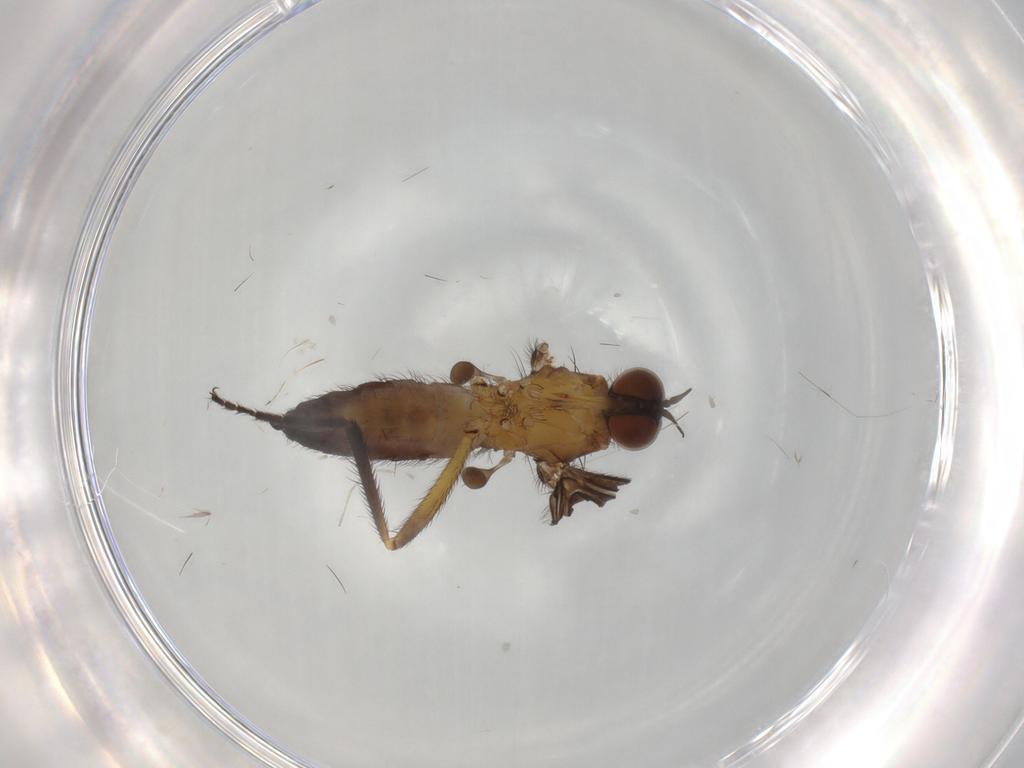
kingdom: Animalia
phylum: Arthropoda
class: Insecta
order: Diptera
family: Empididae
